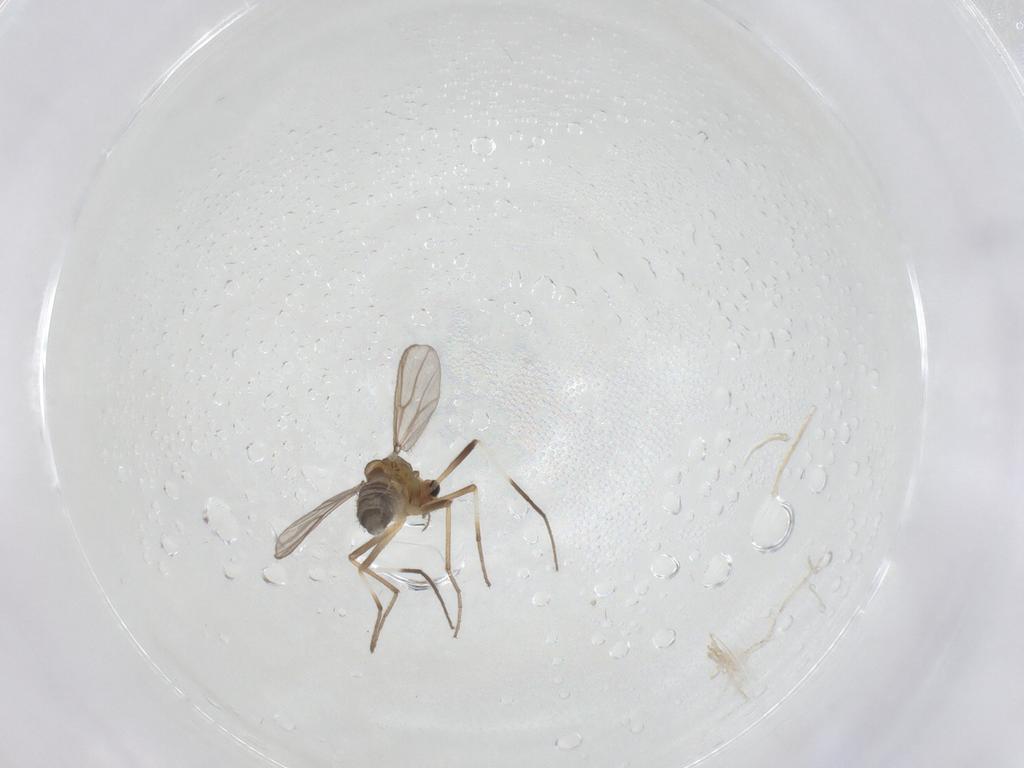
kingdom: Animalia
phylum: Arthropoda
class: Insecta
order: Diptera
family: Chironomidae
